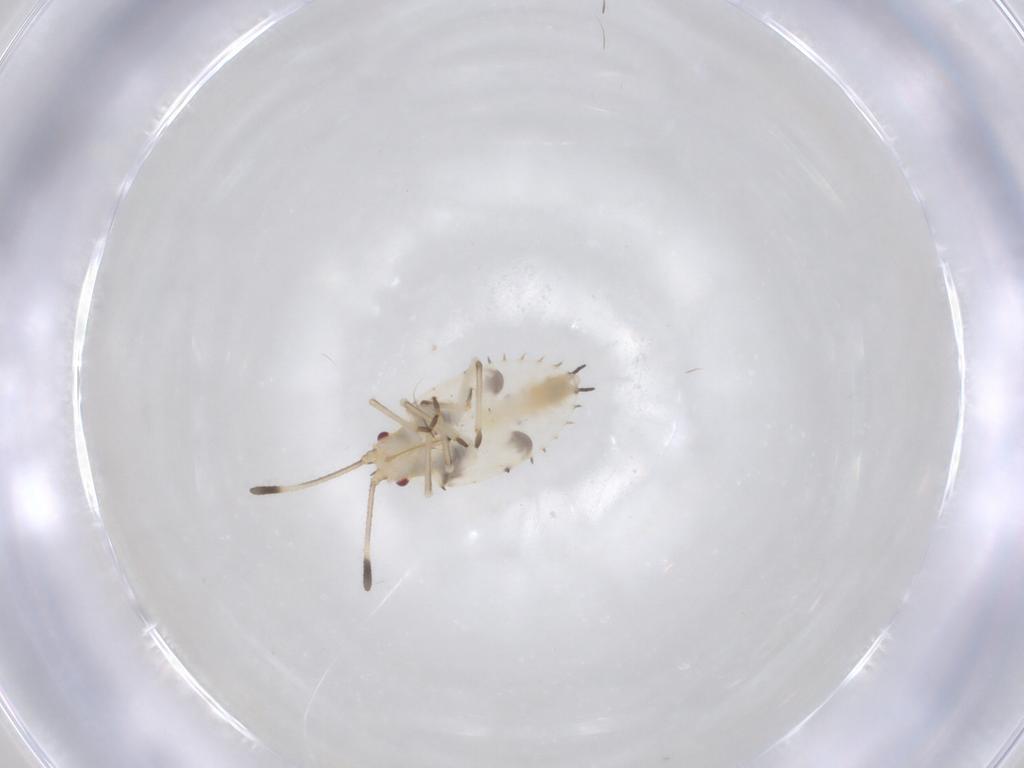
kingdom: Animalia
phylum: Arthropoda
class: Insecta
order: Hemiptera
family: Tingidae
